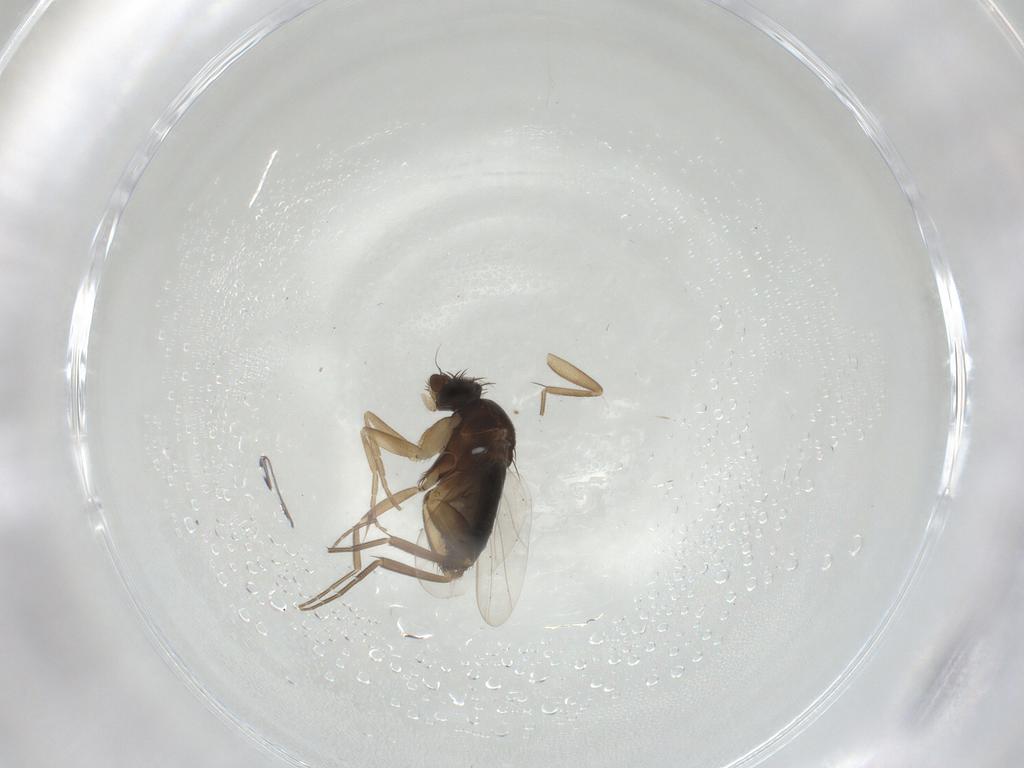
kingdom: Animalia
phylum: Arthropoda
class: Insecta
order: Diptera
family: Phoridae
